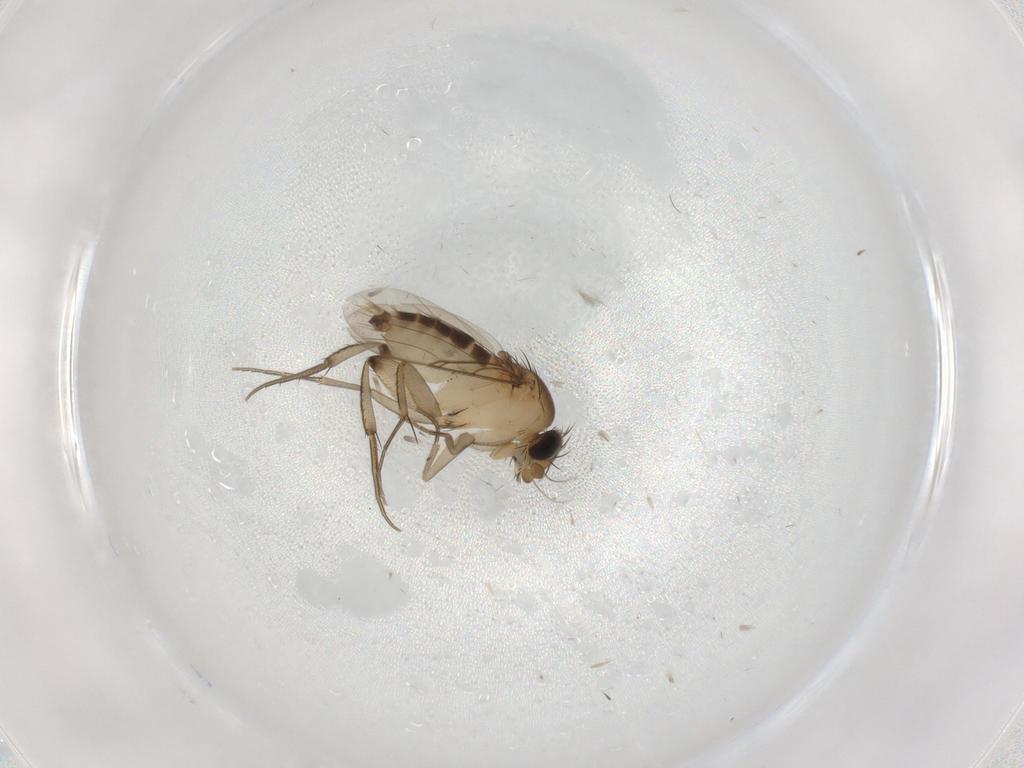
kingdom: Animalia
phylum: Arthropoda
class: Insecta
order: Diptera
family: Phoridae
